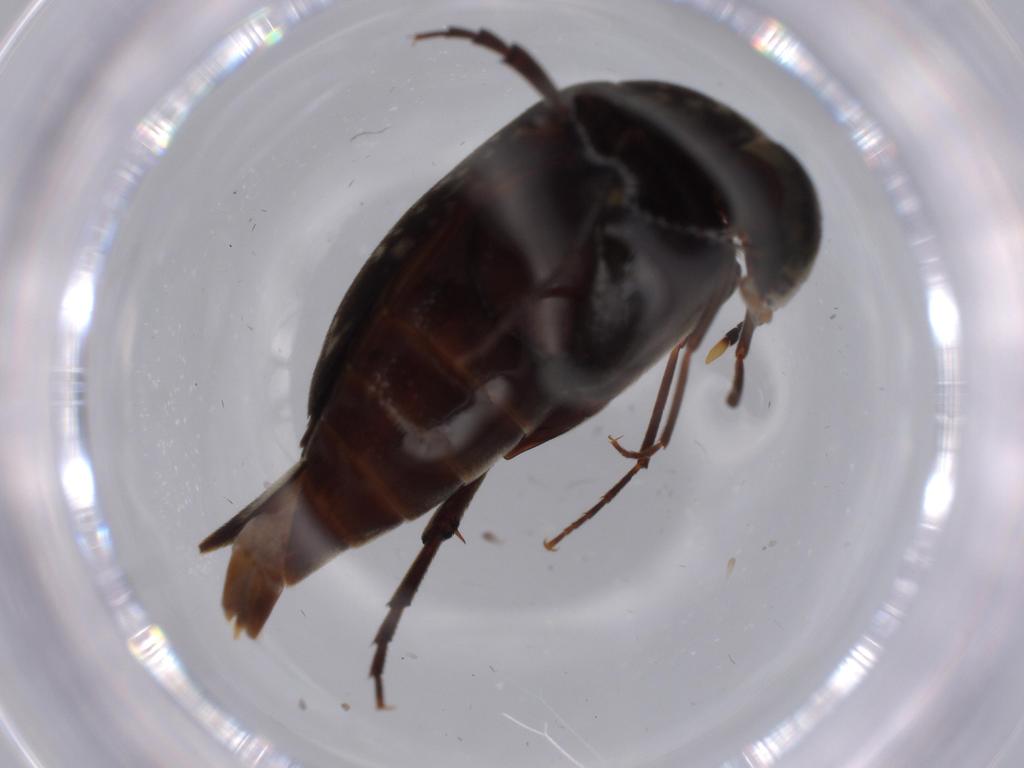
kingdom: Animalia
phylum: Arthropoda
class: Insecta
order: Coleoptera
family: Mordellidae
